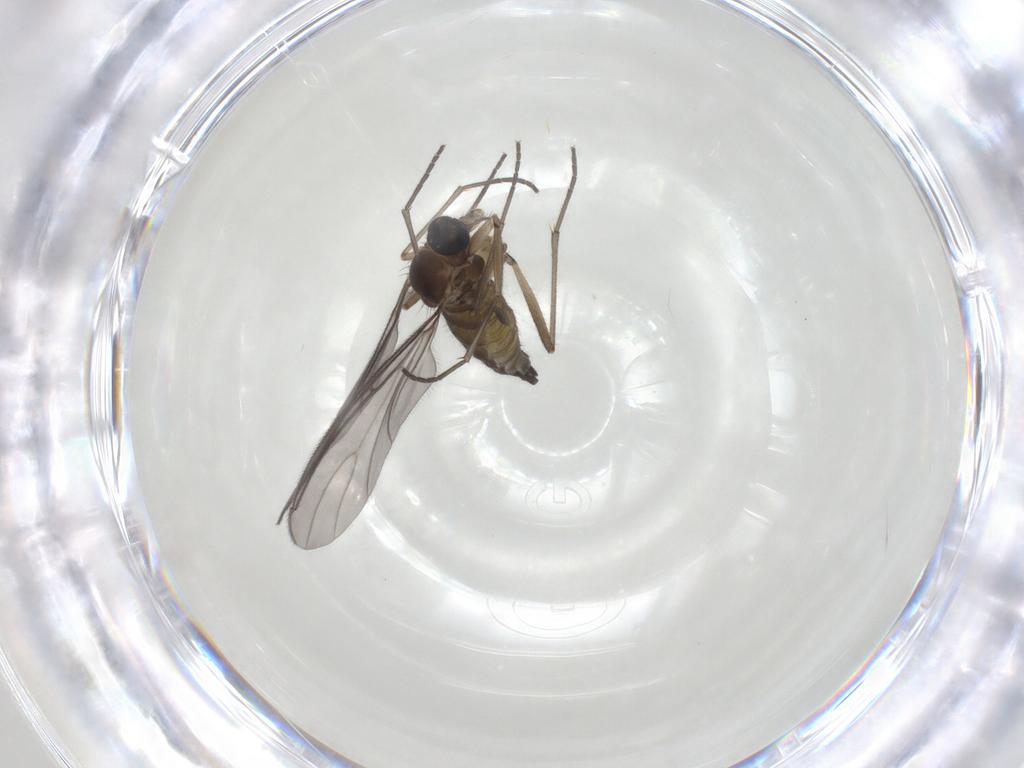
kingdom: Animalia
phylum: Arthropoda
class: Insecta
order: Diptera
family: Sciaridae
